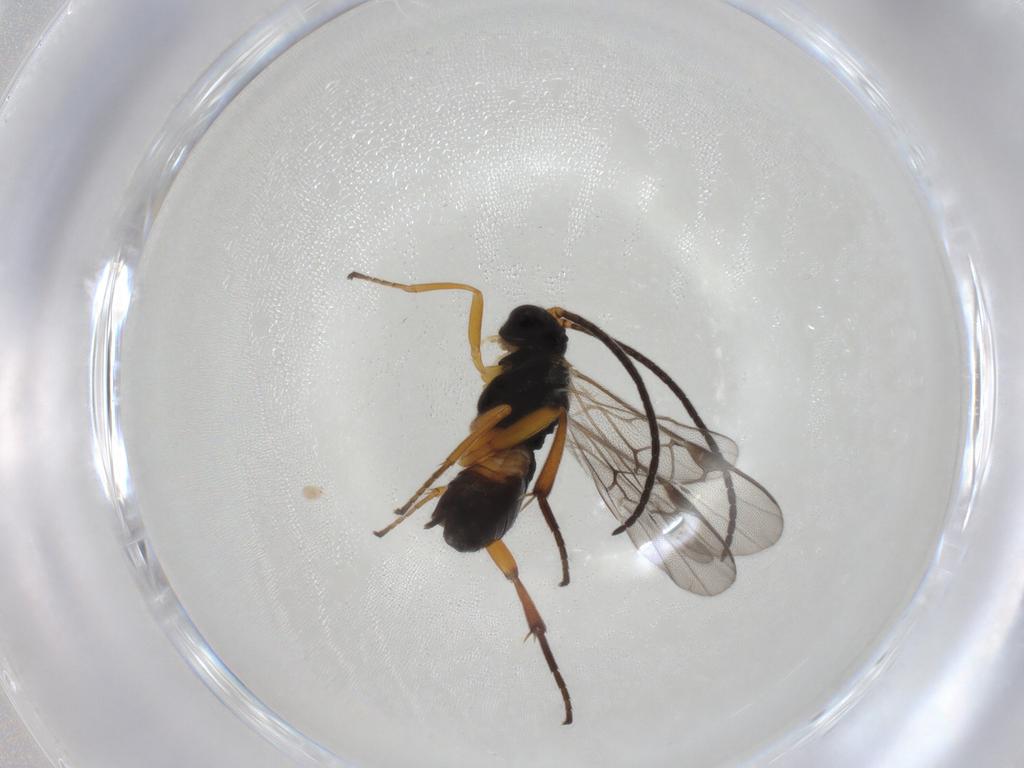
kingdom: Animalia
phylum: Arthropoda
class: Insecta
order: Hymenoptera
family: Braconidae
